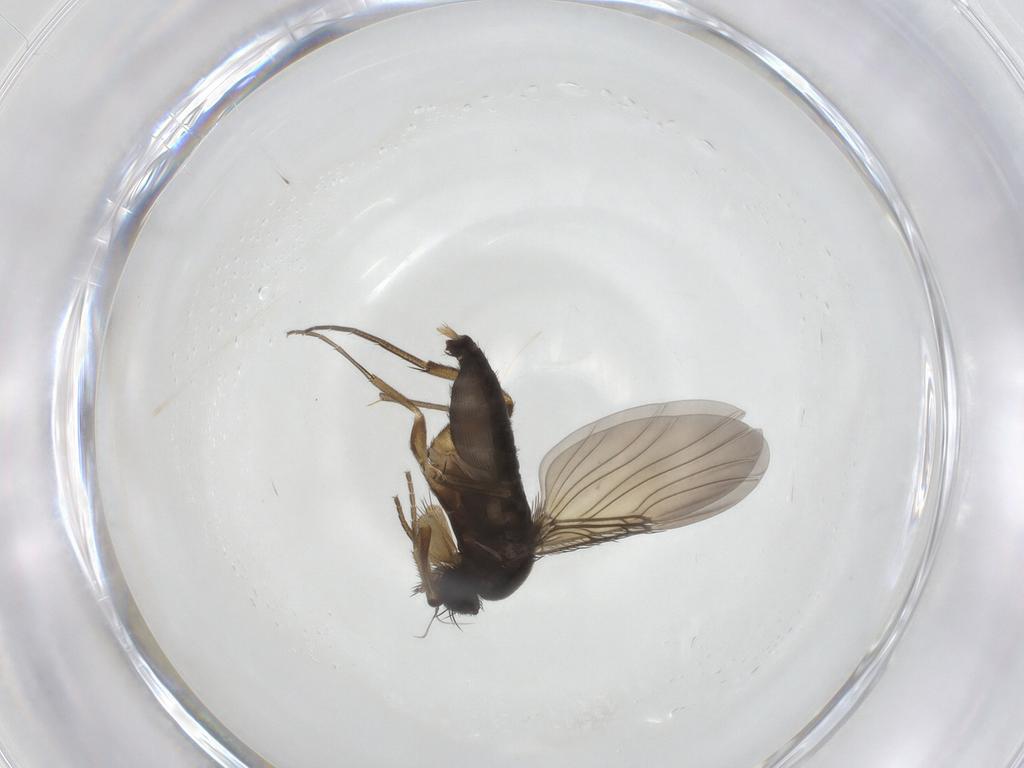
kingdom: Animalia
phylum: Arthropoda
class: Insecta
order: Diptera
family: Phoridae
